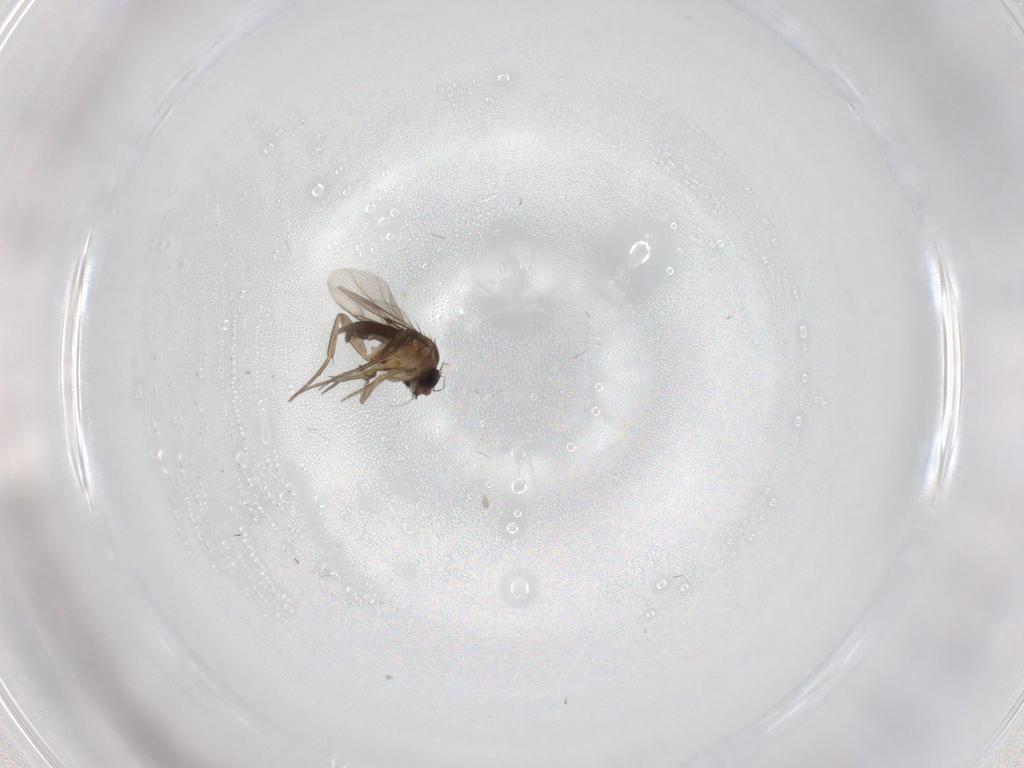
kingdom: Animalia
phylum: Arthropoda
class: Insecta
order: Diptera
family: Phoridae
